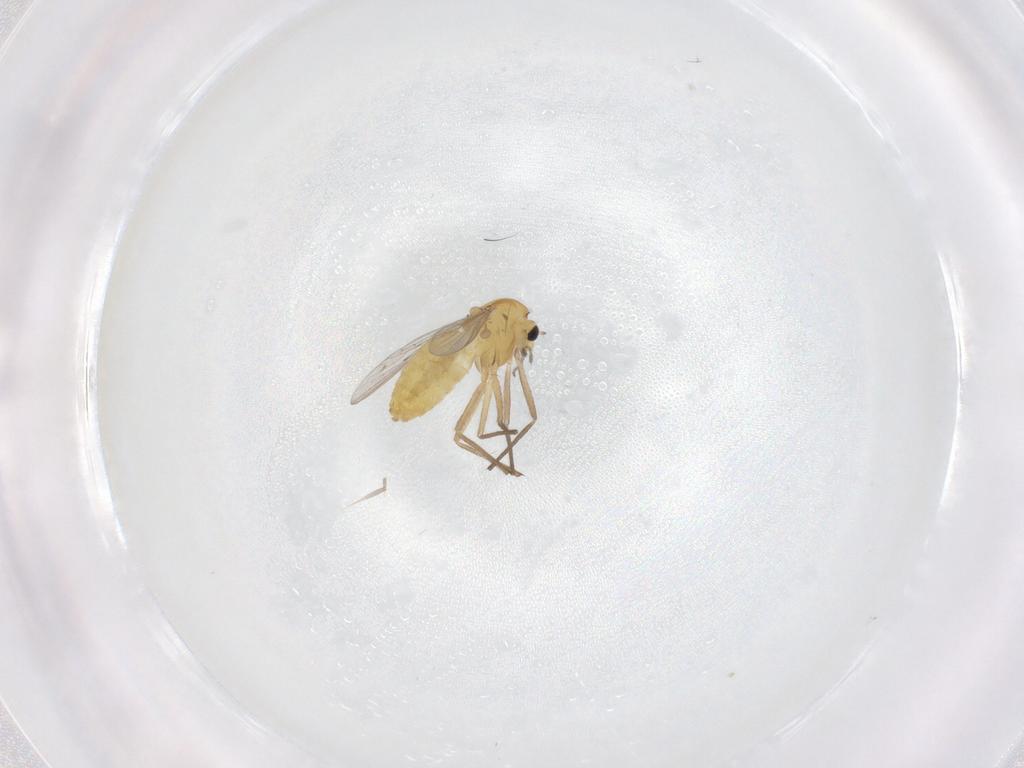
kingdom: Animalia
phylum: Arthropoda
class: Insecta
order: Diptera
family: Chironomidae
